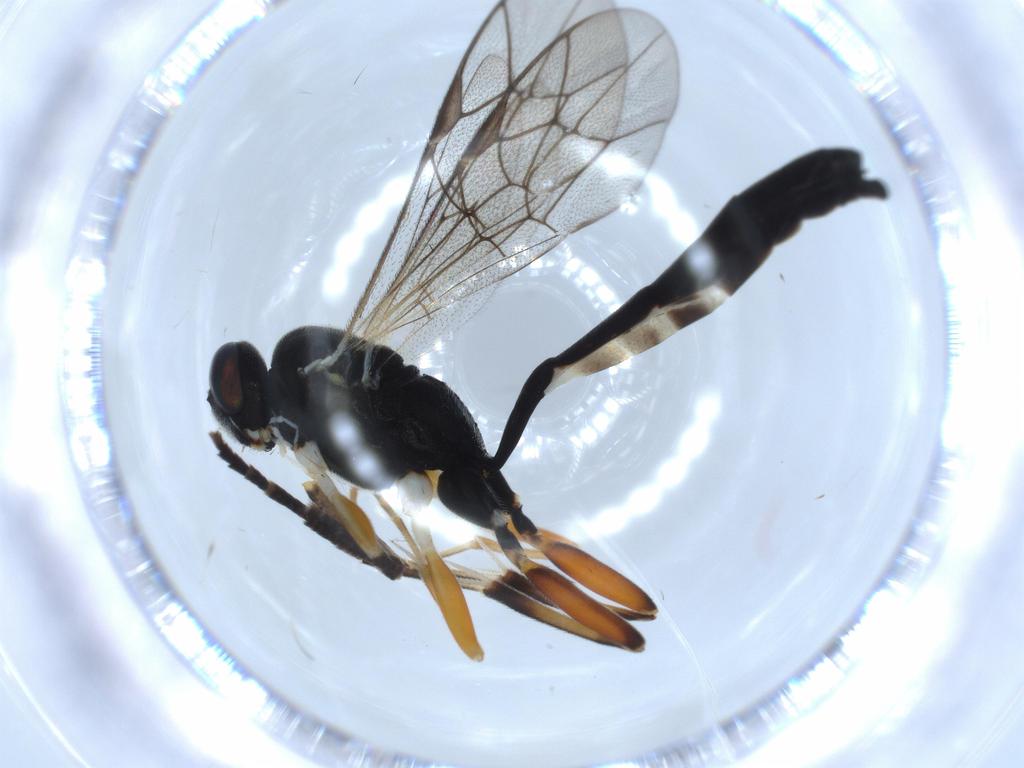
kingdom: Animalia
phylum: Arthropoda
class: Insecta
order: Hymenoptera
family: Ichneumonidae
